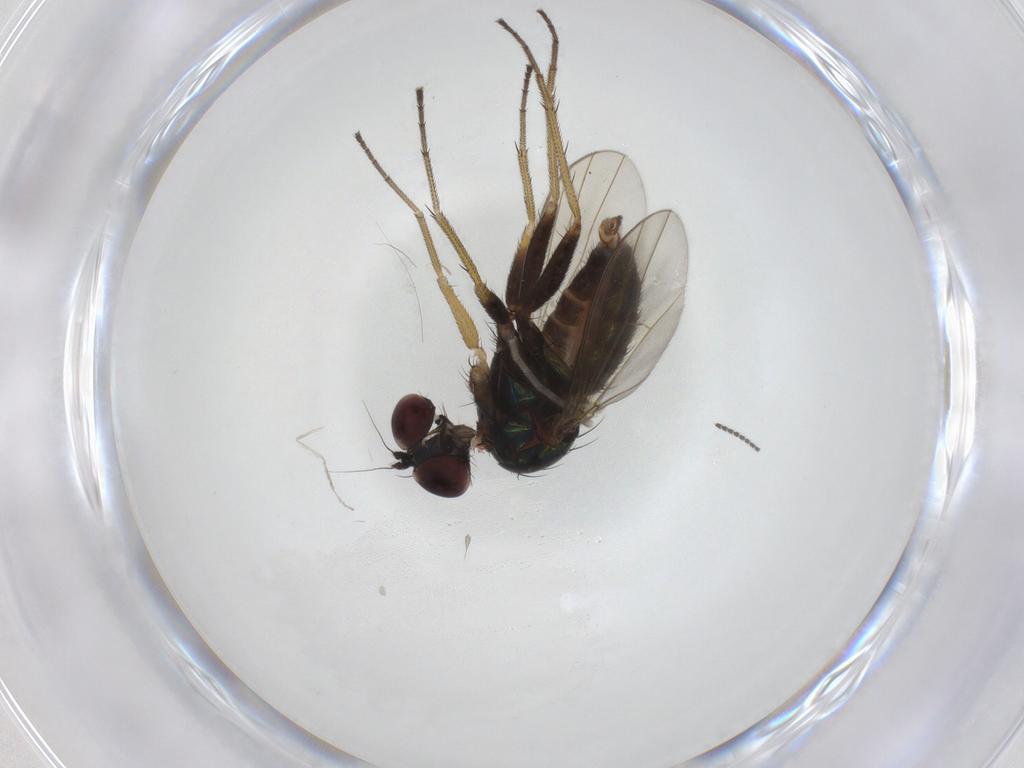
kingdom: Animalia
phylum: Arthropoda
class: Insecta
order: Diptera
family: Dolichopodidae
